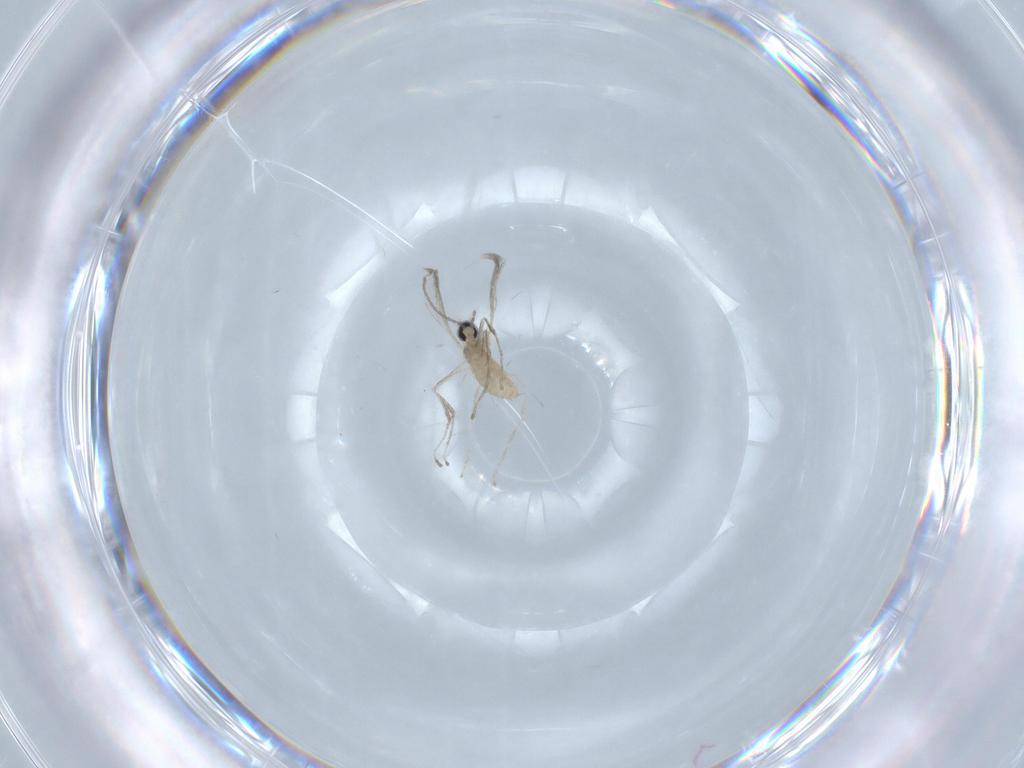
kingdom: Animalia
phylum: Arthropoda
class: Insecta
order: Diptera
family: Cecidomyiidae
